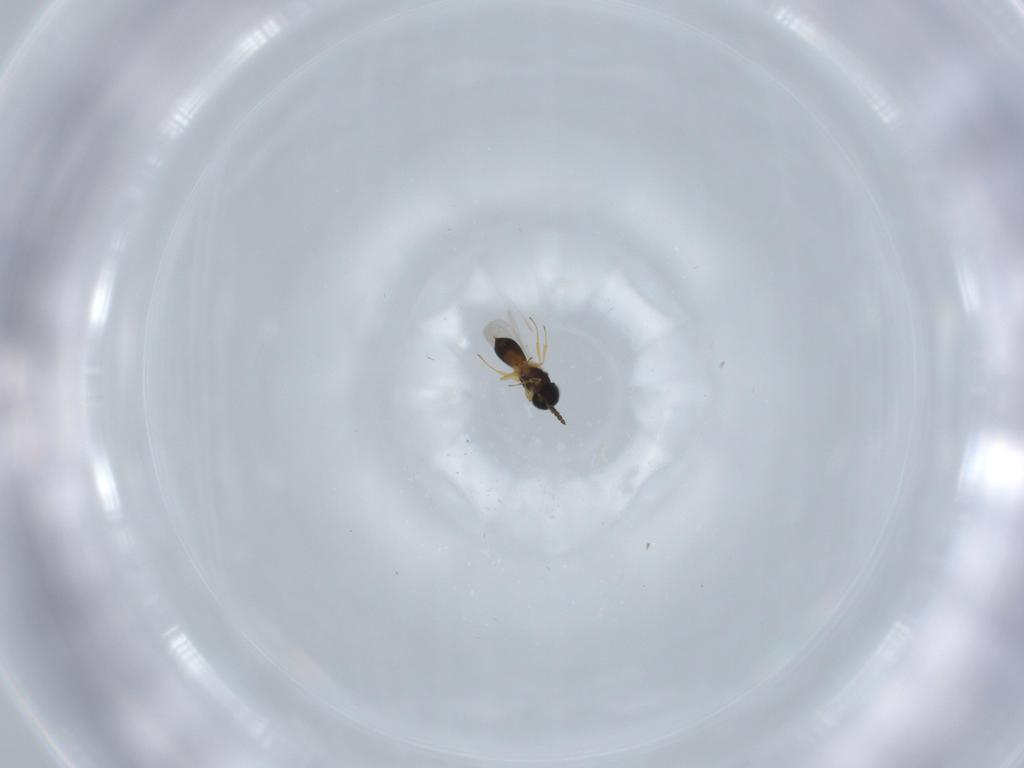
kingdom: Animalia
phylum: Arthropoda
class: Insecta
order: Hymenoptera
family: Scelionidae
